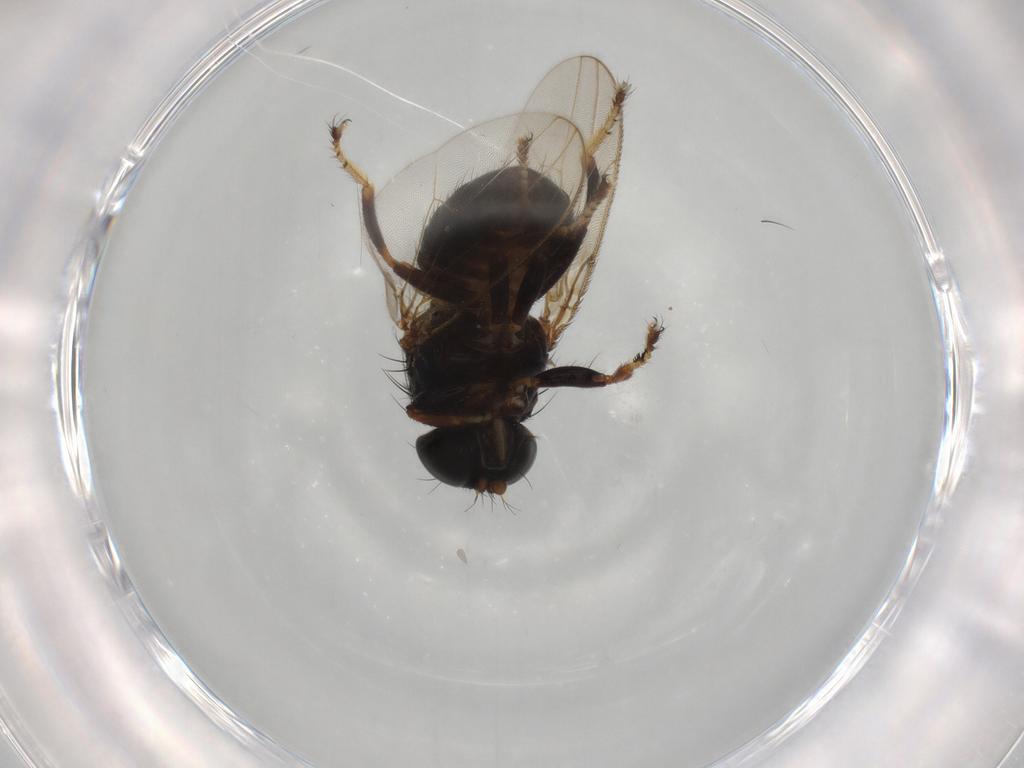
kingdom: Animalia
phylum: Arthropoda
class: Insecta
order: Diptera
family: Drosophilidae
